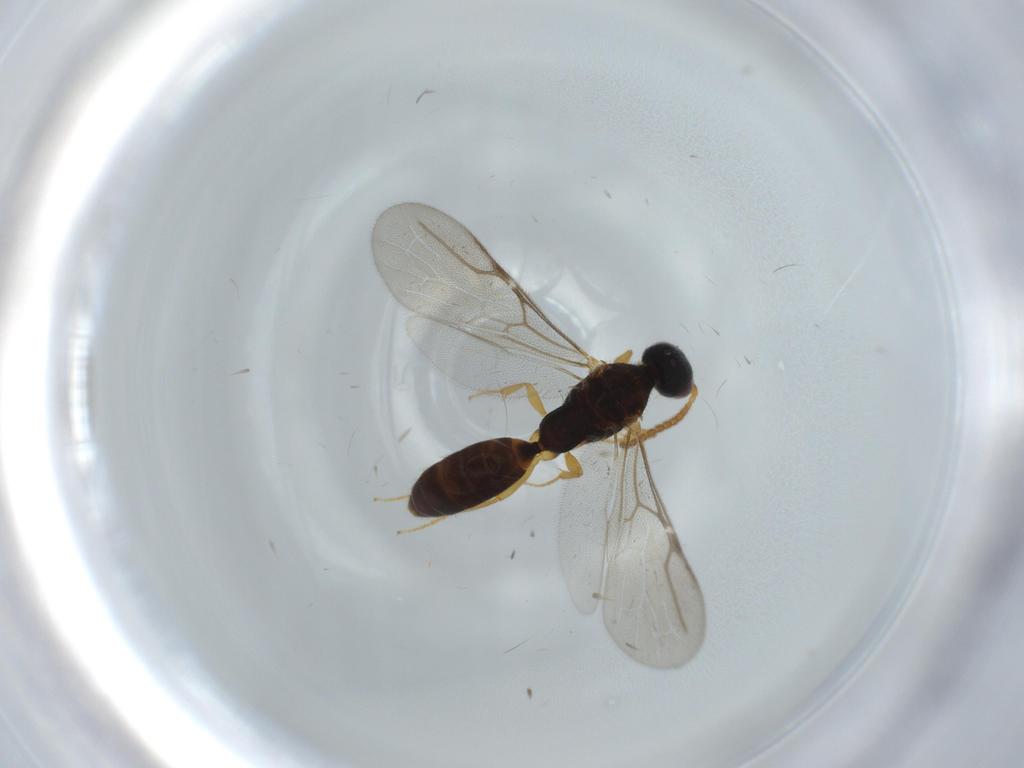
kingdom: Animalia
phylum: Arthropoda
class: Insecta
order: Hymenoptera
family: Bethylidae
